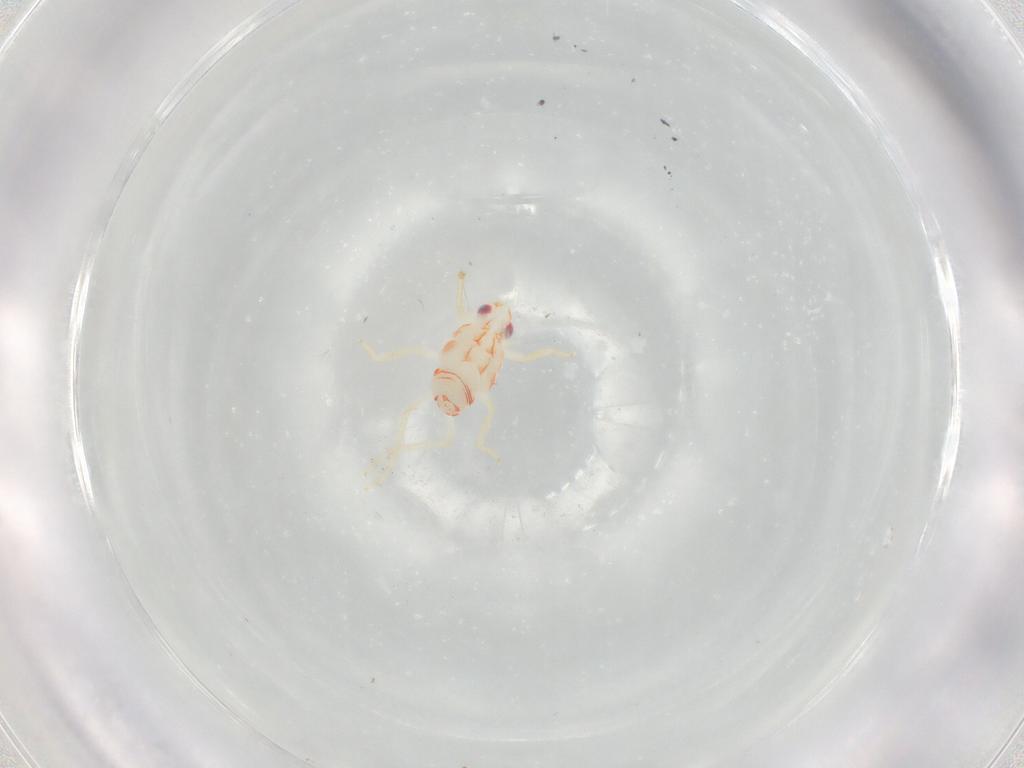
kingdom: Animalia
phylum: Arthropoda
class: Insecta
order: Hemiptera
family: Tropiduchidae
